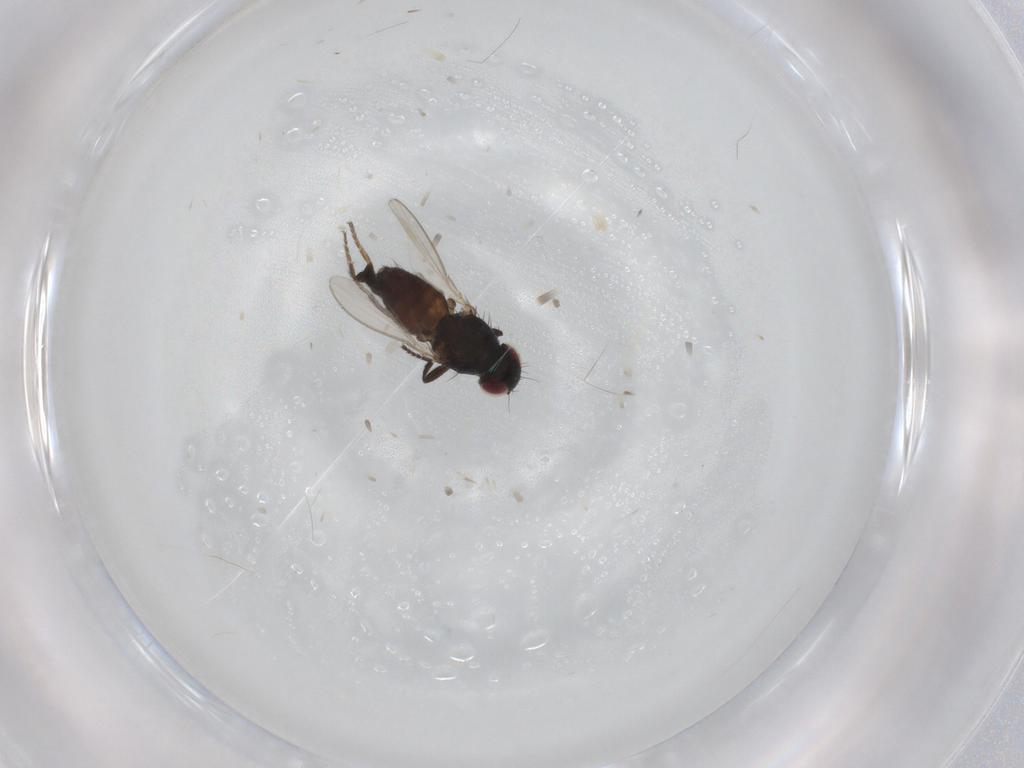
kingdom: Animalia
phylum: Arthropoda
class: Insecta
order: Diptera
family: Milichiidae
